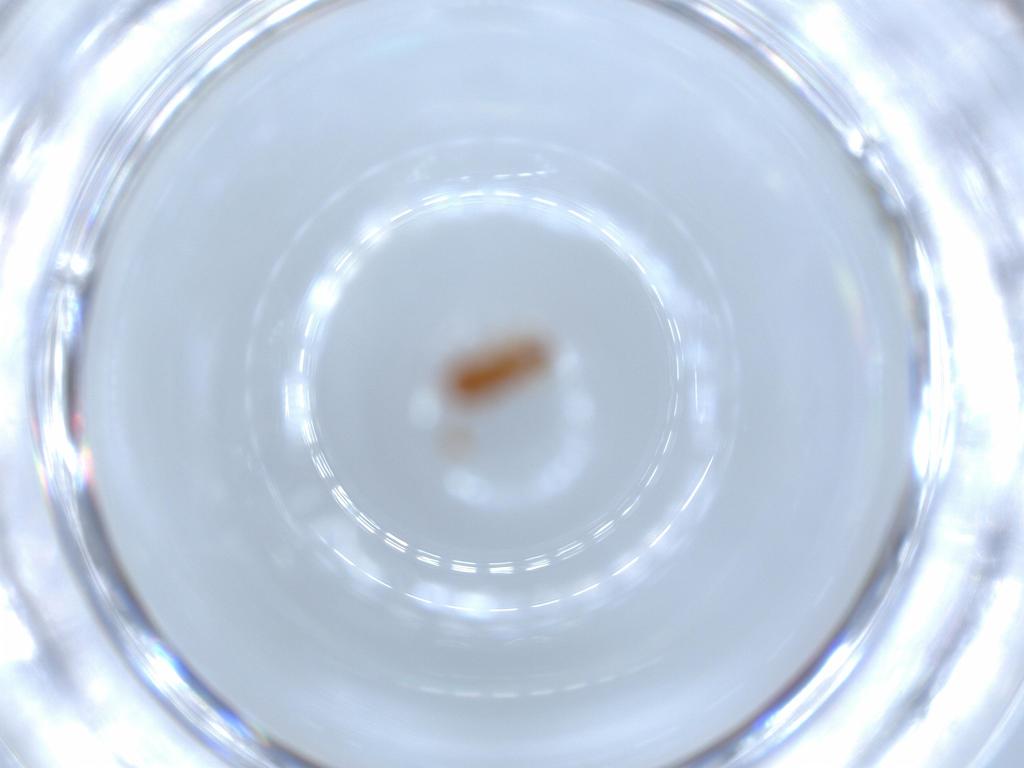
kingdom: Animalia
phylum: Arthropoda
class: Insecta
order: Coleoptera
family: Staphylinidae
